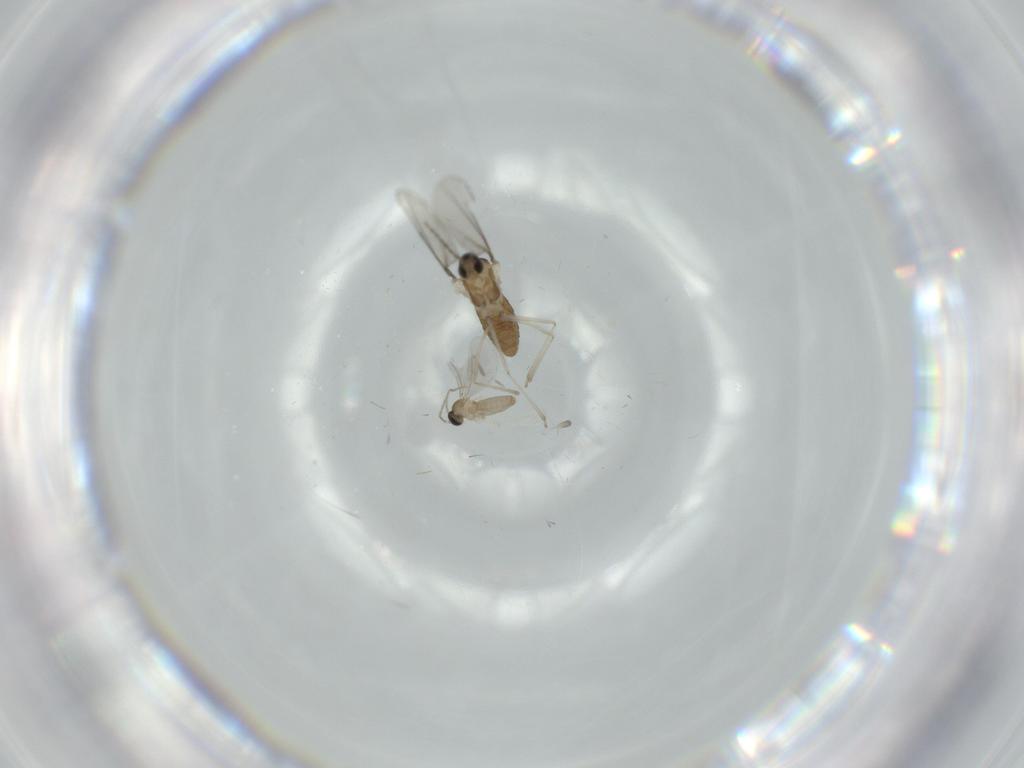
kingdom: Animalia
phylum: Arthropoda
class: Insecta
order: Diptera
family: Cecidomyiidae
